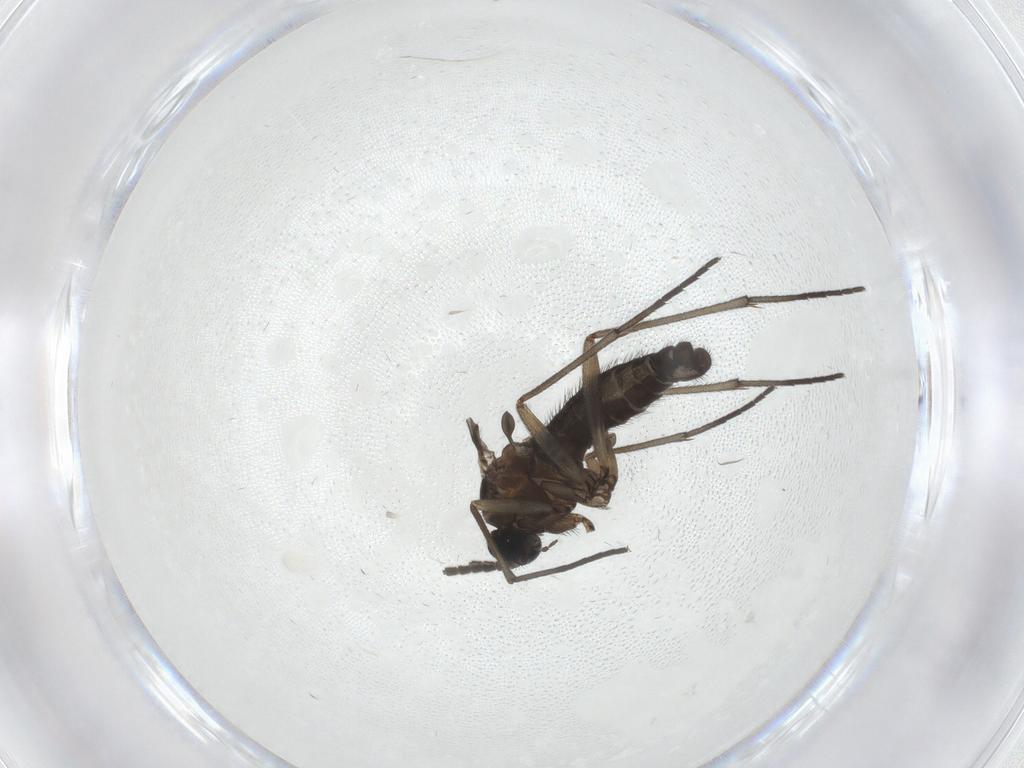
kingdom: Animalia
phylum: Arthropoda
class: Insecta
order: Diptera
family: Sciaridae
